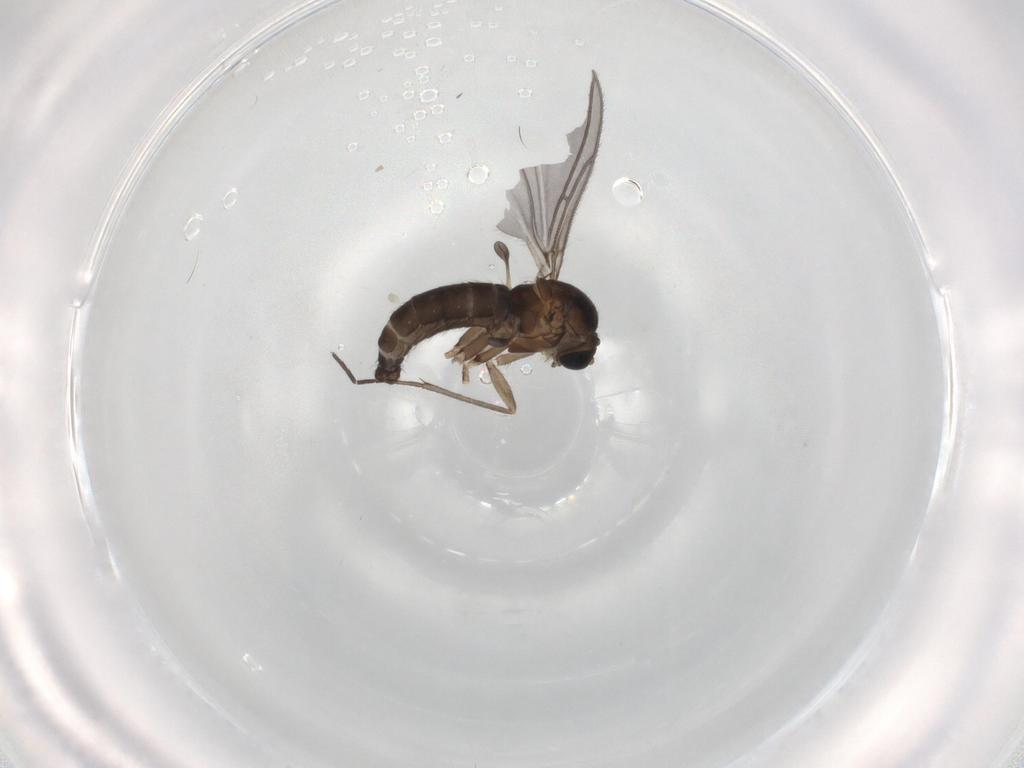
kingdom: Animalia
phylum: Arthropoda
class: Insecta
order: Diptera
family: Sciaridae
